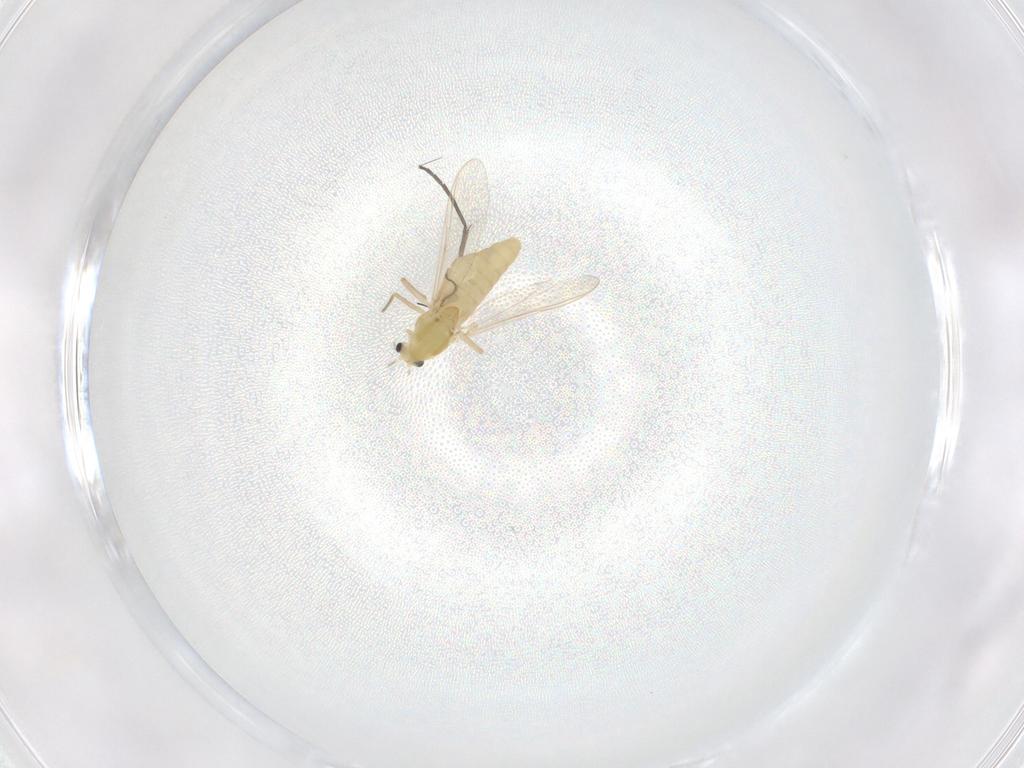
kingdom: Animalia
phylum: Arthropoda
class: Insecta
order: Diptera
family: Chironomidae
